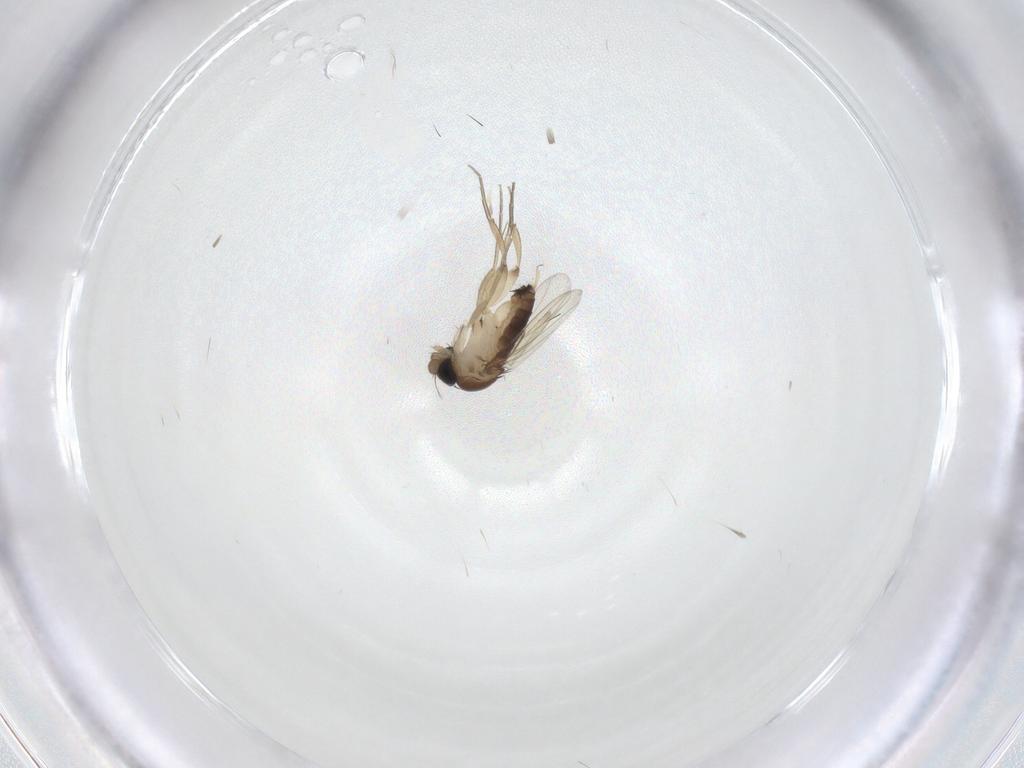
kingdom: Animalia
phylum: Arthropoda
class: Insecta
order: Diptera
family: Phoridae
